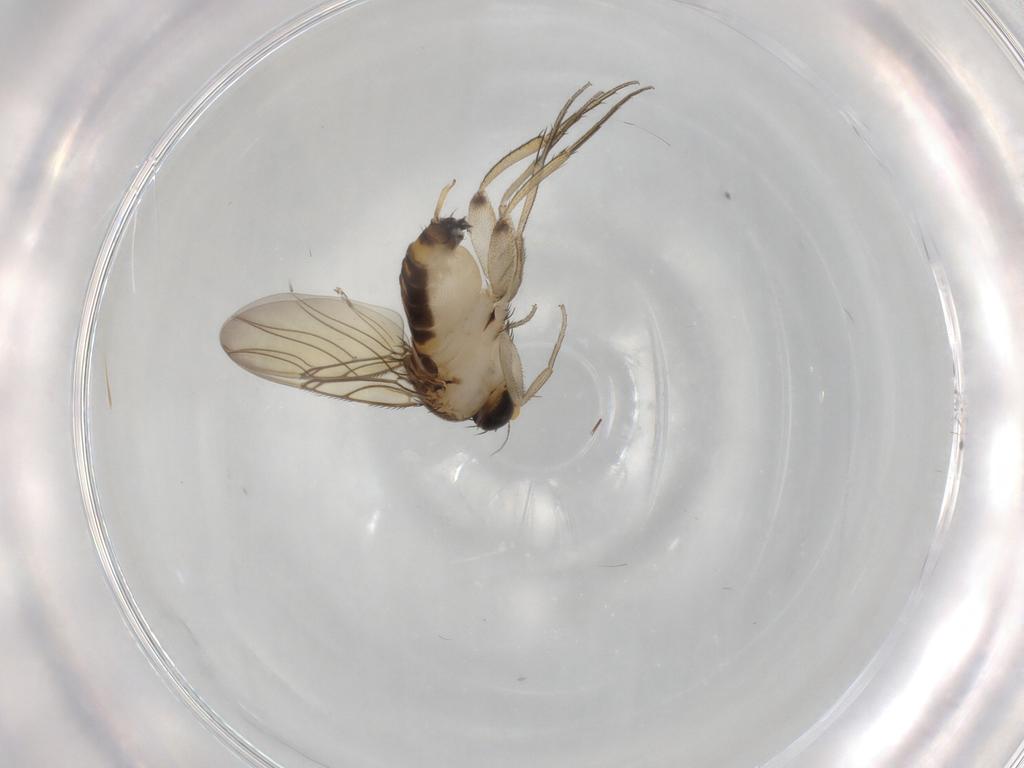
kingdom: Animalia
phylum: Arthropoda
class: Insecta
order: Diptera
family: Phoridae
